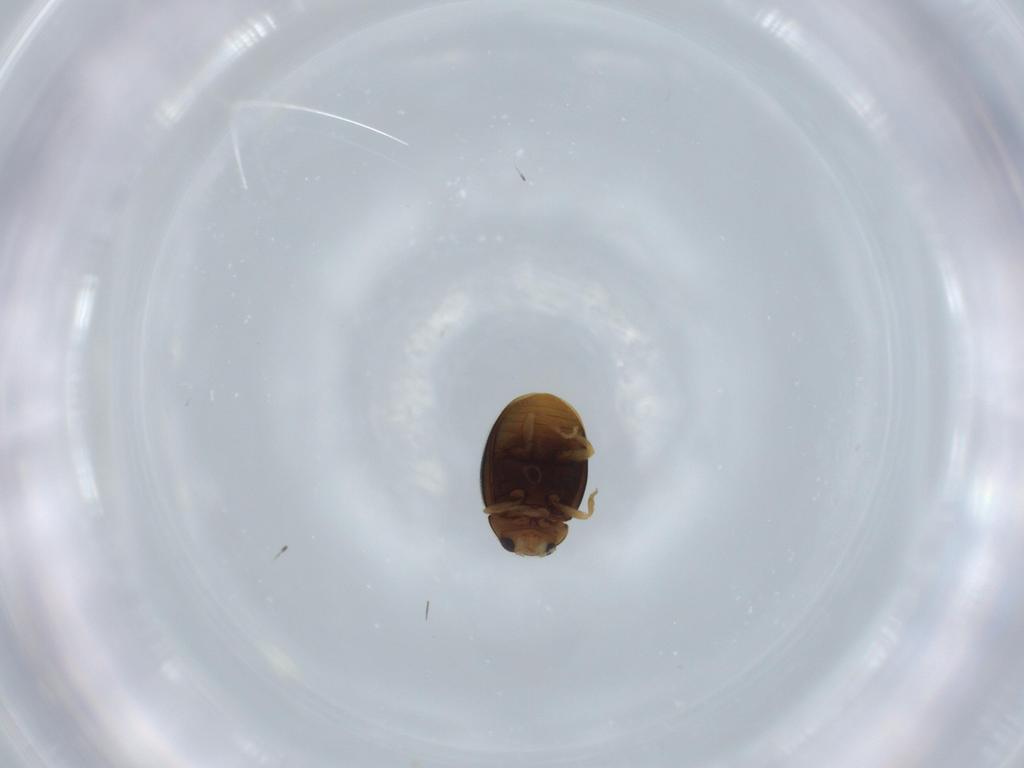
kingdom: Animalia
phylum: Arthropoda
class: Insecta
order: Coleoptera
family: Coccinellidae
